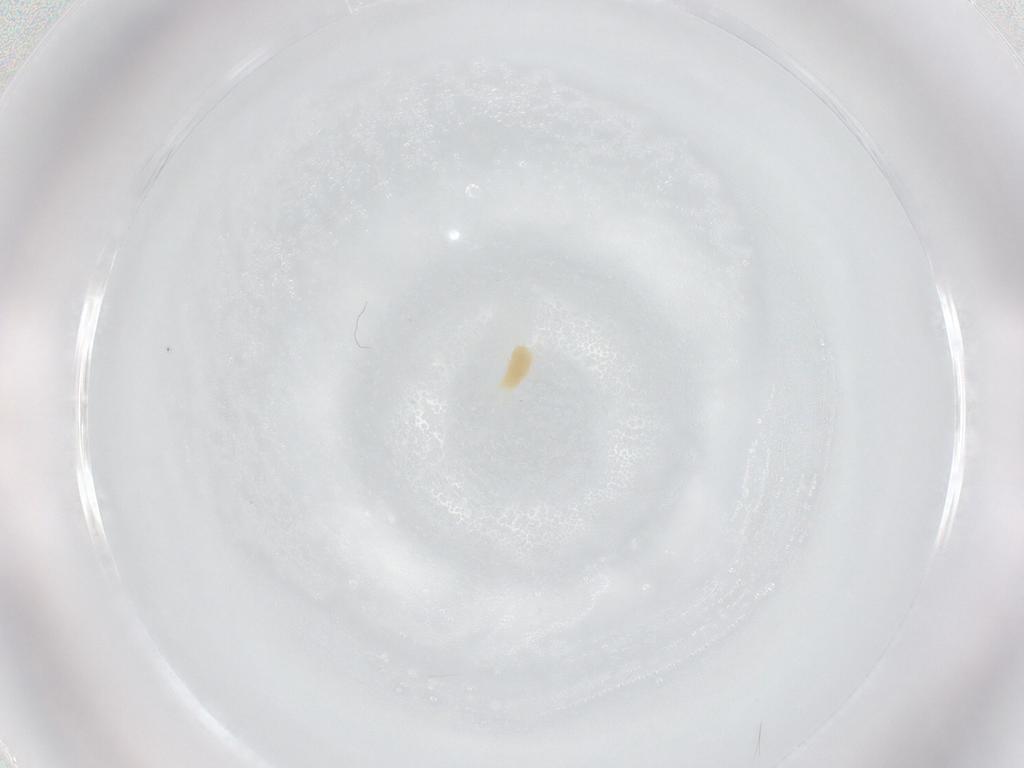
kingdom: Animalia
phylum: Arthropoda
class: Arachnida
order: Trombidiformes
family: Tetranychidae
